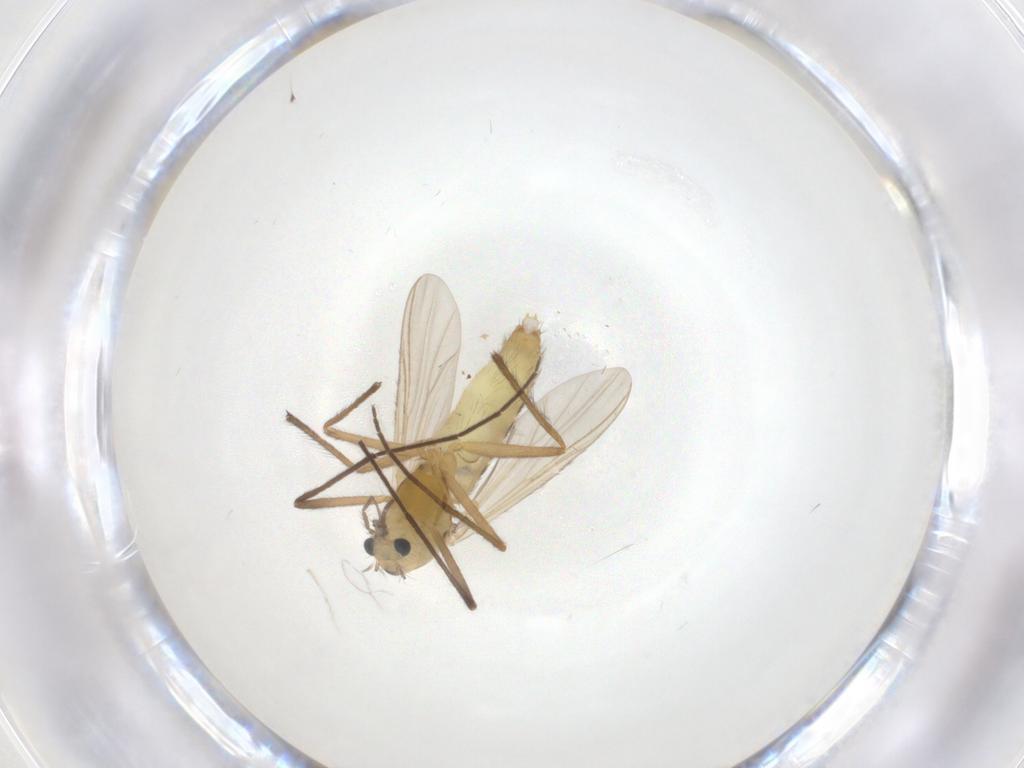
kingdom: Animalia
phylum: Arthropoda
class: Insecta
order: Diptera
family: Chironomidae
